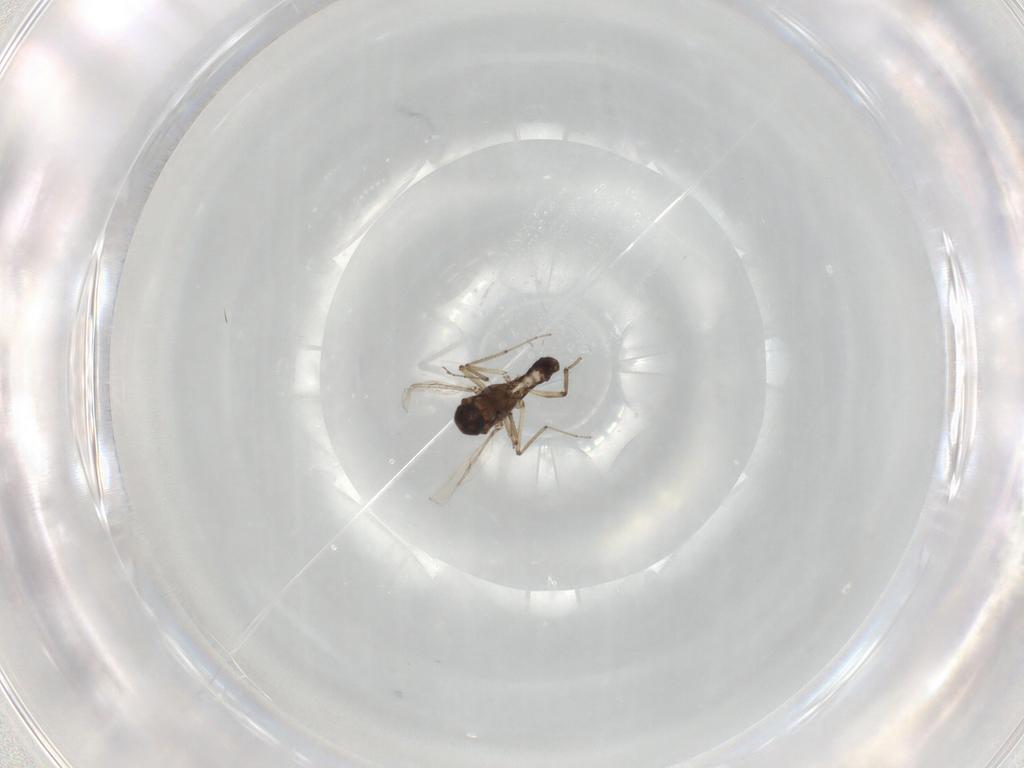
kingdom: Animalia
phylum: Arthropoda
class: Insecta
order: Diptera
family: Ceratopogonidae
